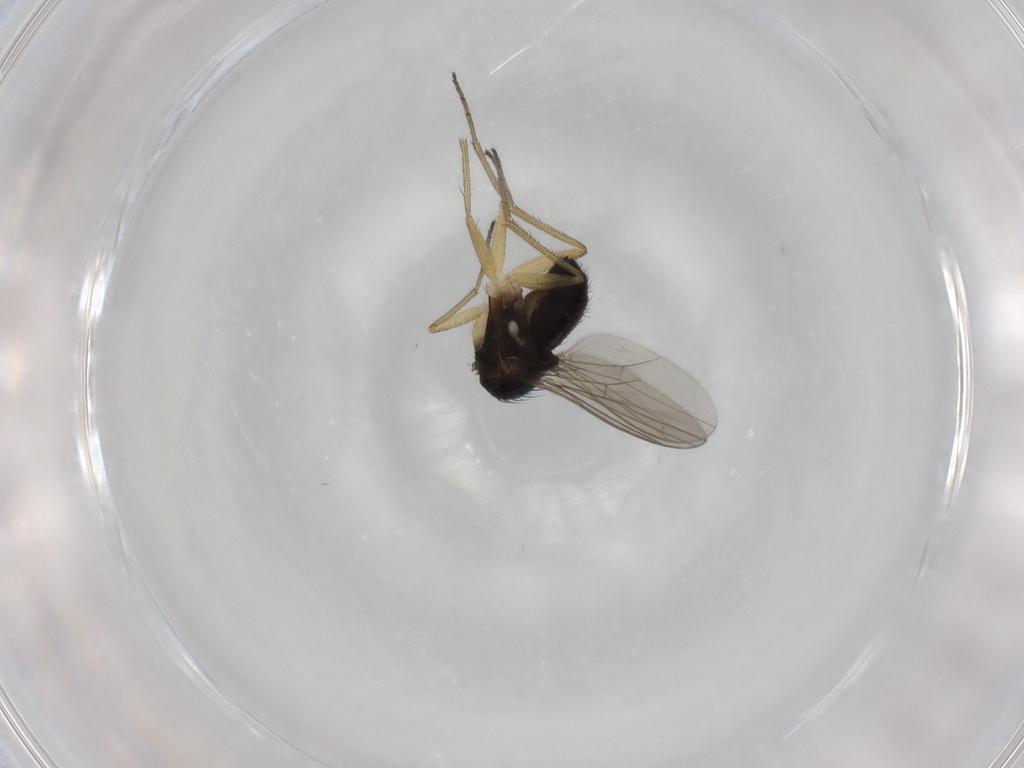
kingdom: Animalia
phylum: Arthropoda
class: Insecta
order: Diptera
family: Dolichopodidae
